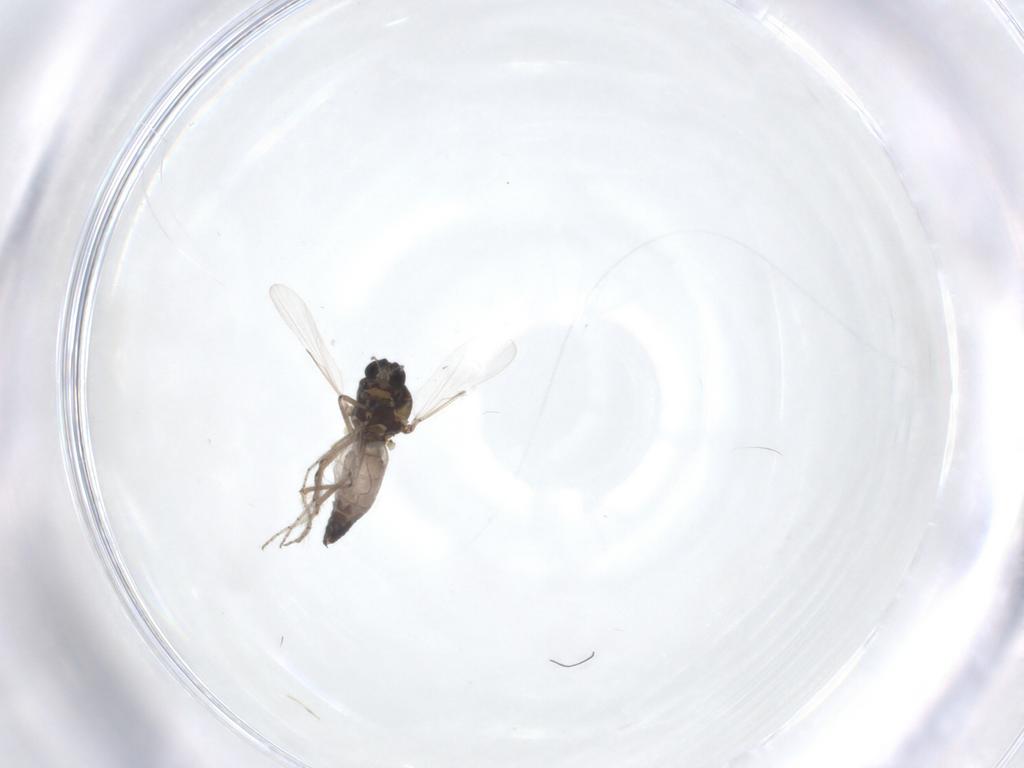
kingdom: Animalia
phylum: Arthropoda
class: Insecta
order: Diptera
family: Ceratopogonidae
